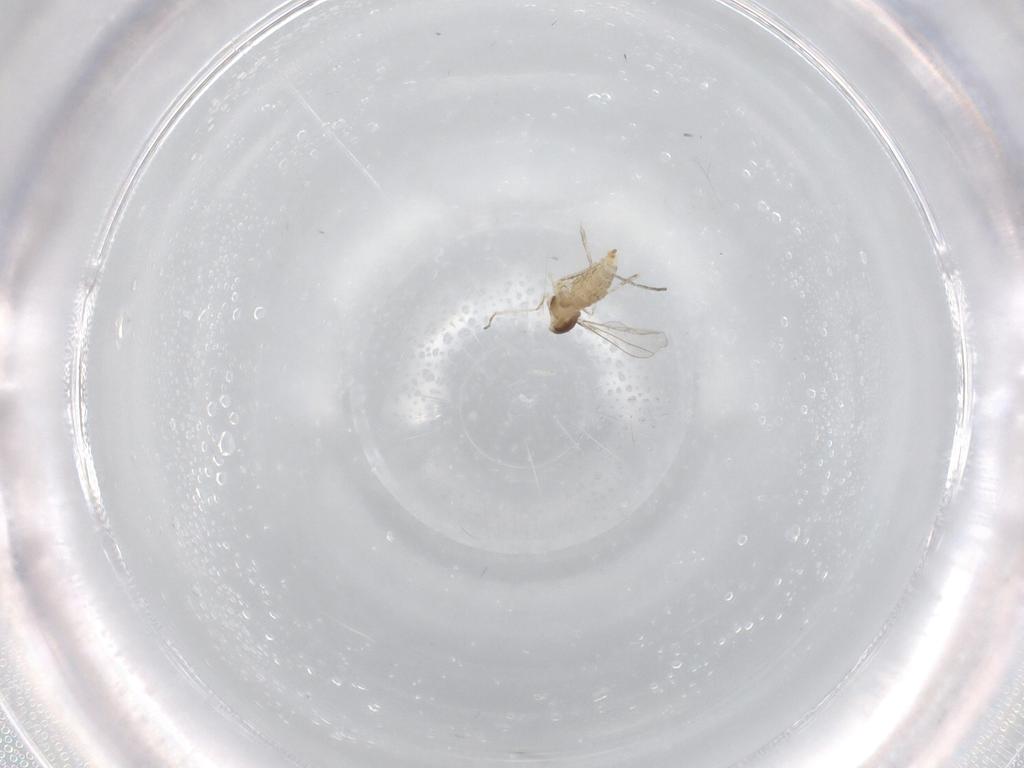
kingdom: Animalia
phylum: Arthropoda
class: Insecta
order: Diptera
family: Cecidomyiidae
